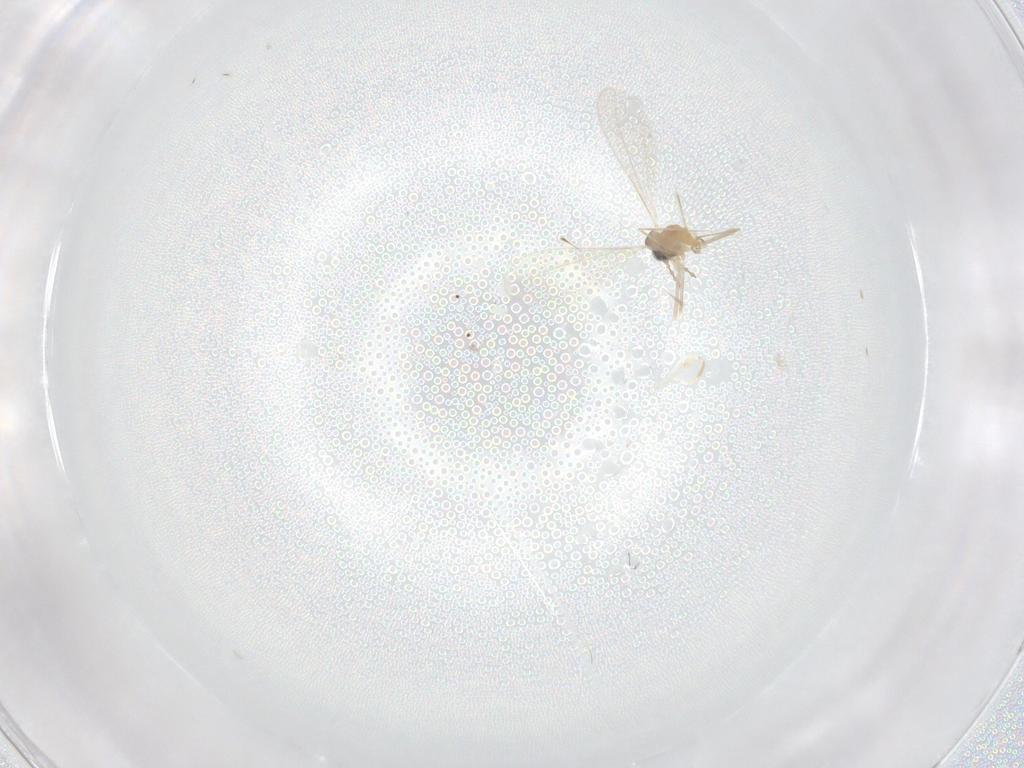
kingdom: Animalia
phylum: Arthropoda
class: Insecta
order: Diptera
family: Cecidomyiidae
